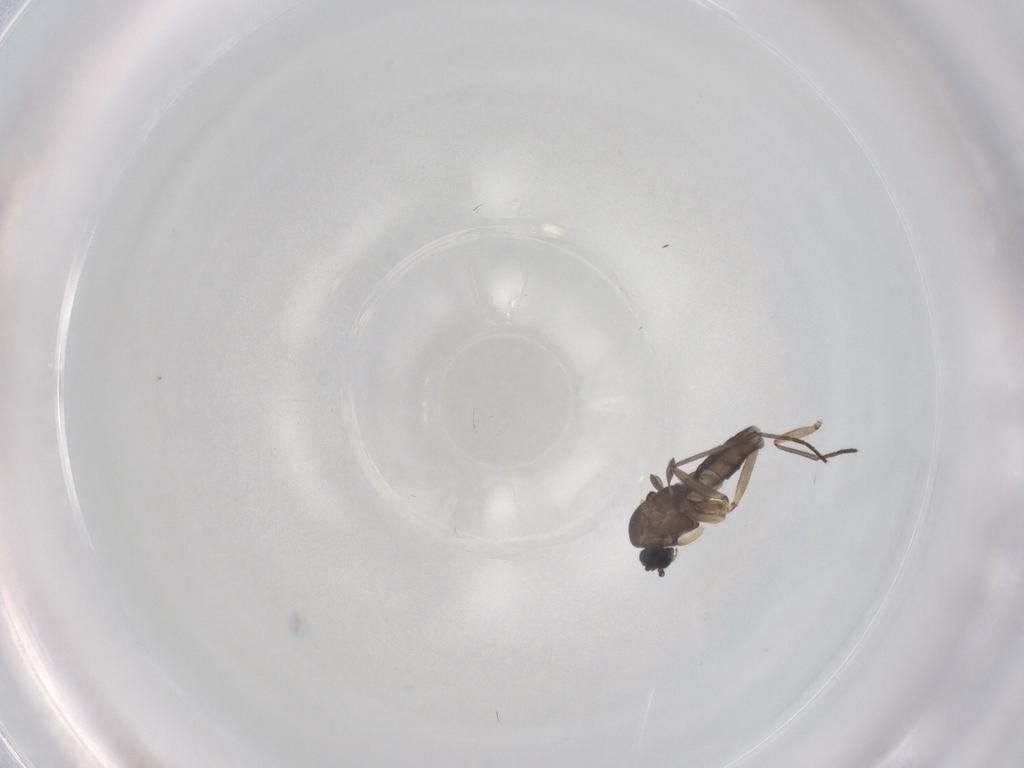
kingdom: Animalia
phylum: Arthropoda
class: Insecta
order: Diptera
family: Sciaridae
